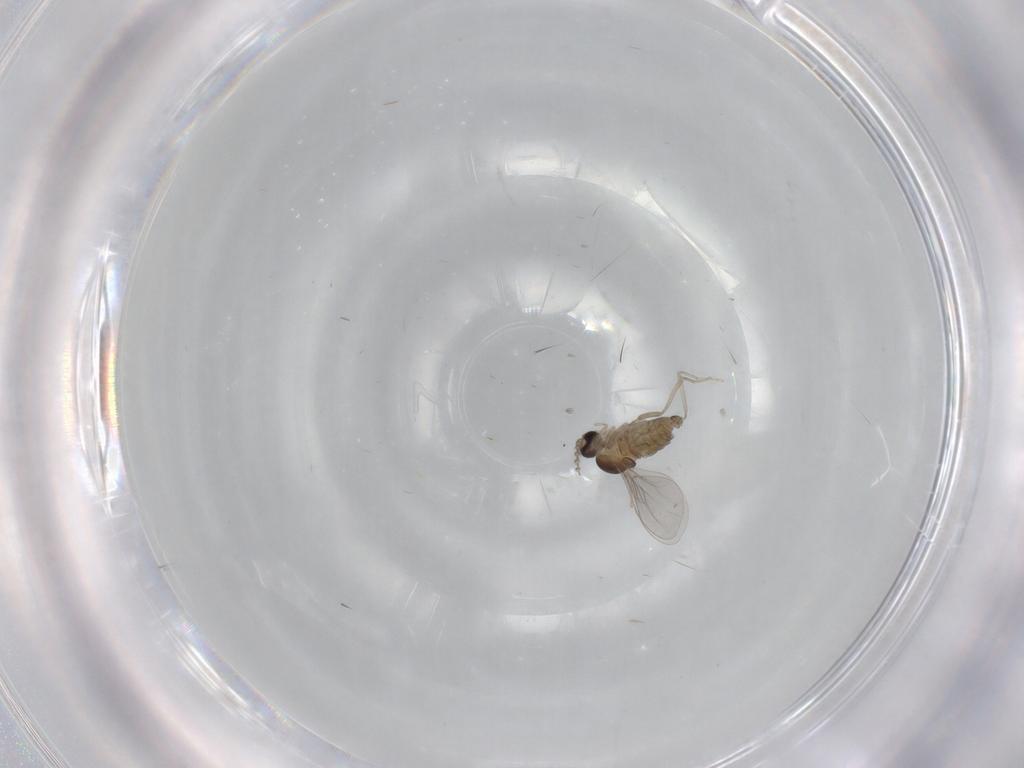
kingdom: Animalia
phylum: Arthropoda
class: Insecta
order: Diptera
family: Cecidomyiidae
